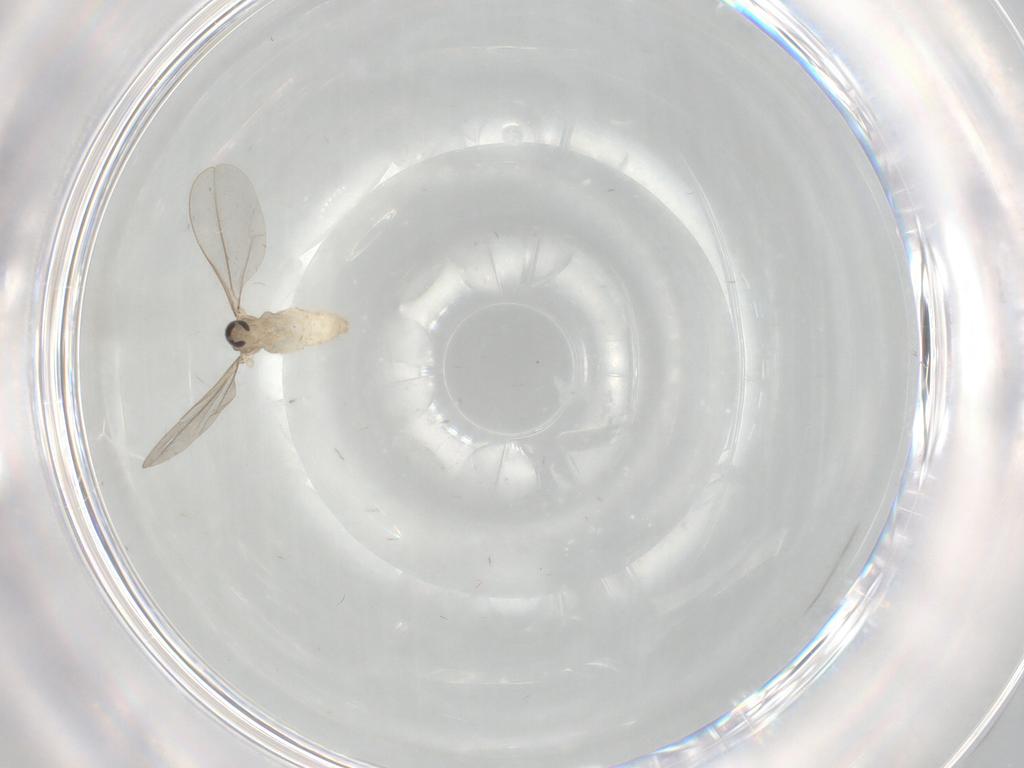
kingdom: Animalia
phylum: Arthropoda
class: Insecta
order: Diptera
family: Cecidomyiidae
